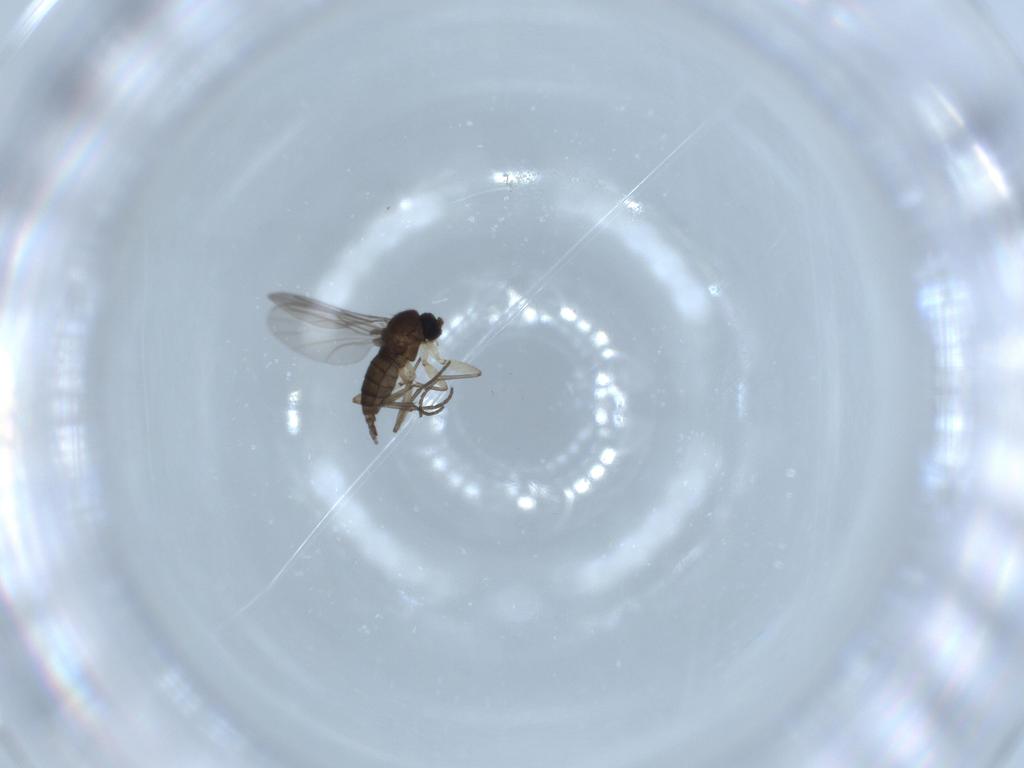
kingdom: Animalia
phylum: Arthropoda
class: Insecta
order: Diptera
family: Sciaridae
